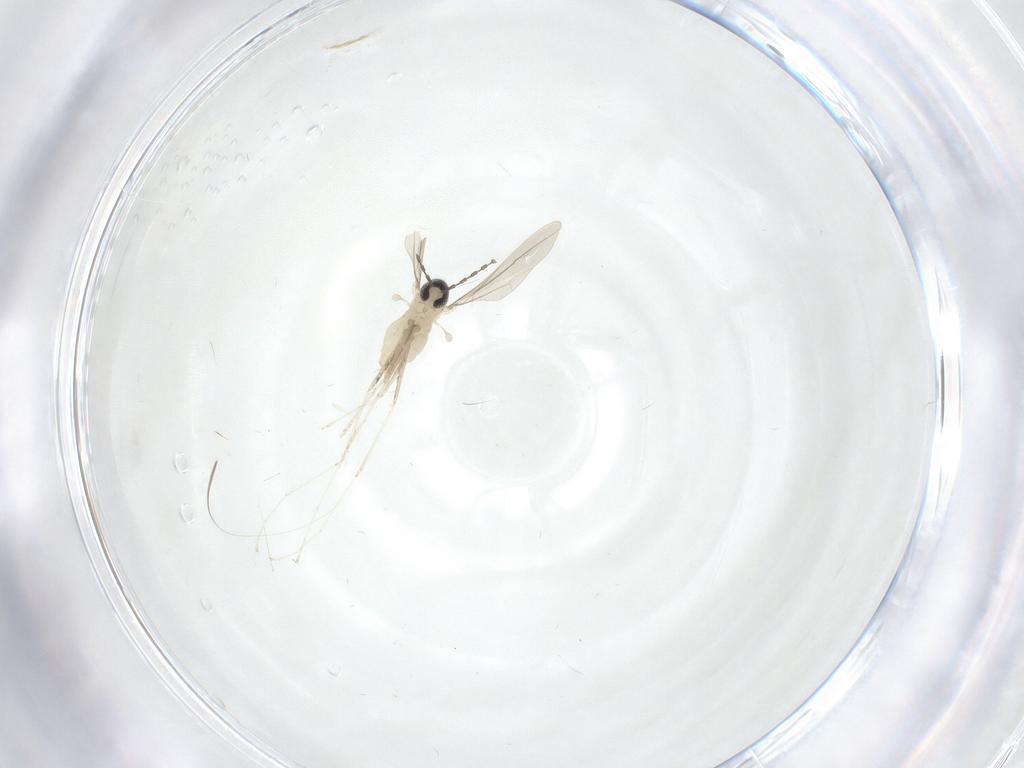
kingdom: Animalia
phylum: Arthropoda
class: Insecta
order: Diptera
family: Cecidomyiidae
